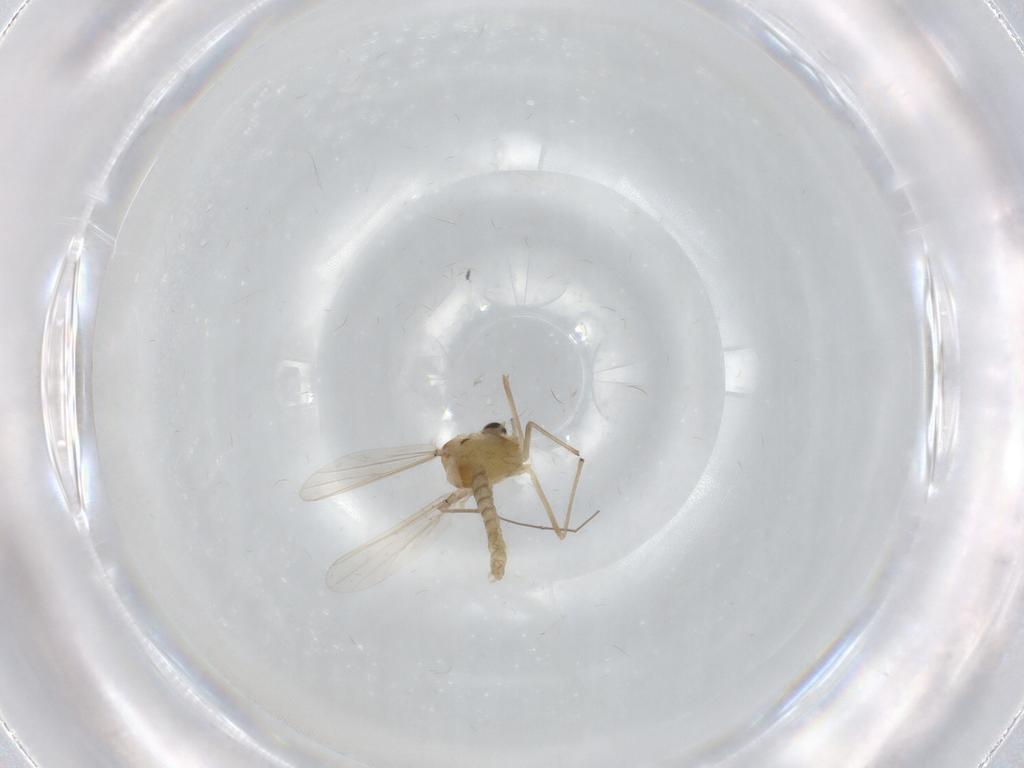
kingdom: Animalia
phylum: Arthropoda
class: Insecta
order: Diptera
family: Chironomidae
